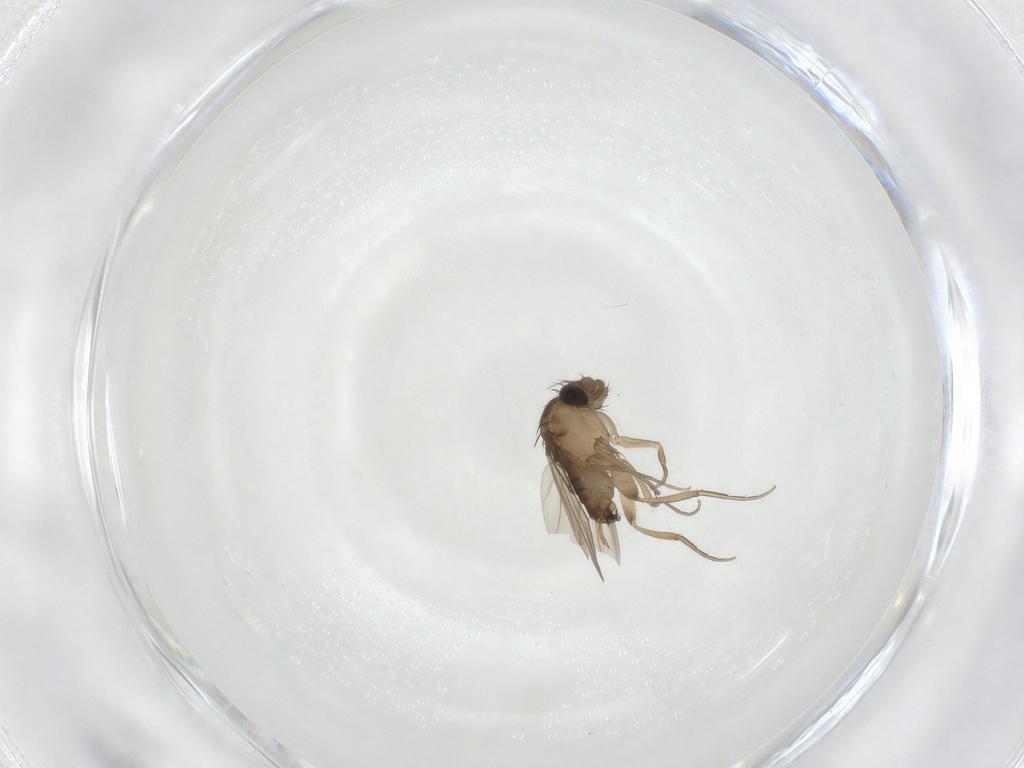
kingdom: Animalia
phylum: Arthropoda
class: Insecta
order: Diptera
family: Phoridae
